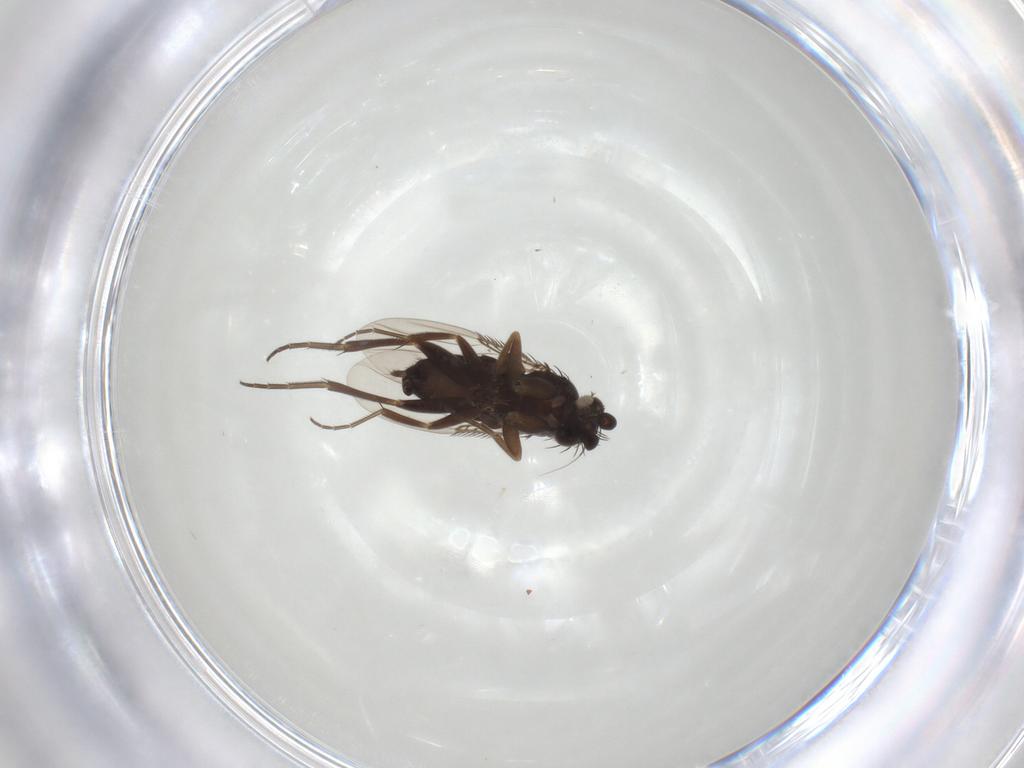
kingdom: Animalia
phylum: Arthropoda
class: Insecta
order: Diptera
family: Phoridae
